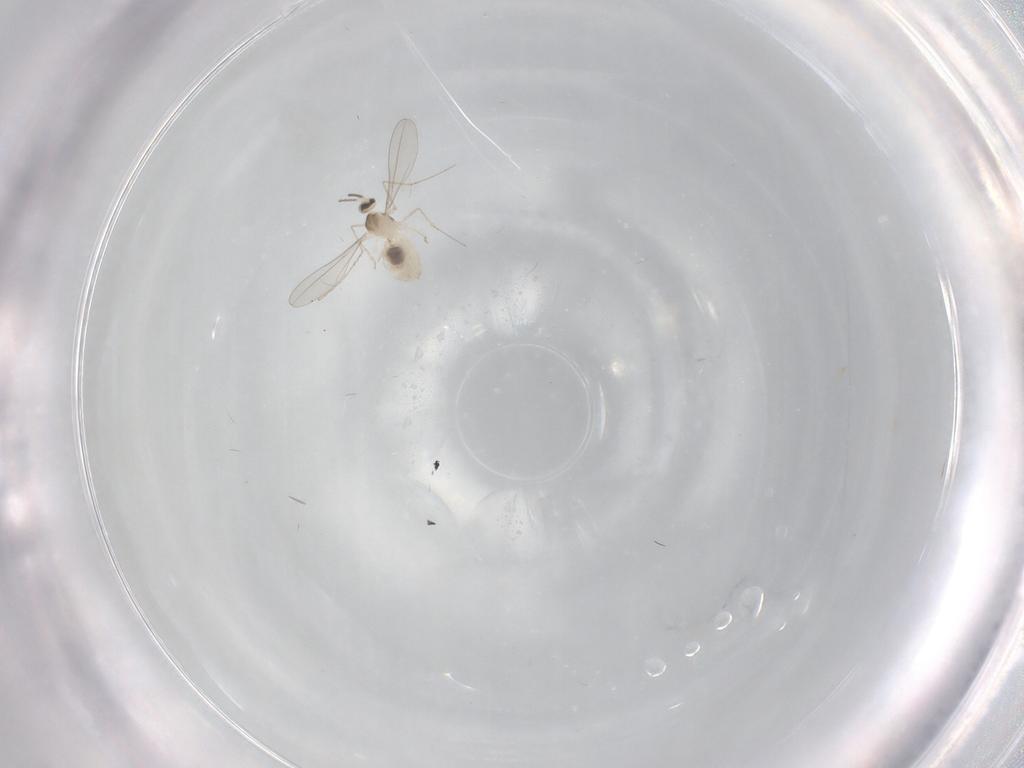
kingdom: Animalia
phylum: Arthropoda
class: Insecta
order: Diptera
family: Mycetophilidae
